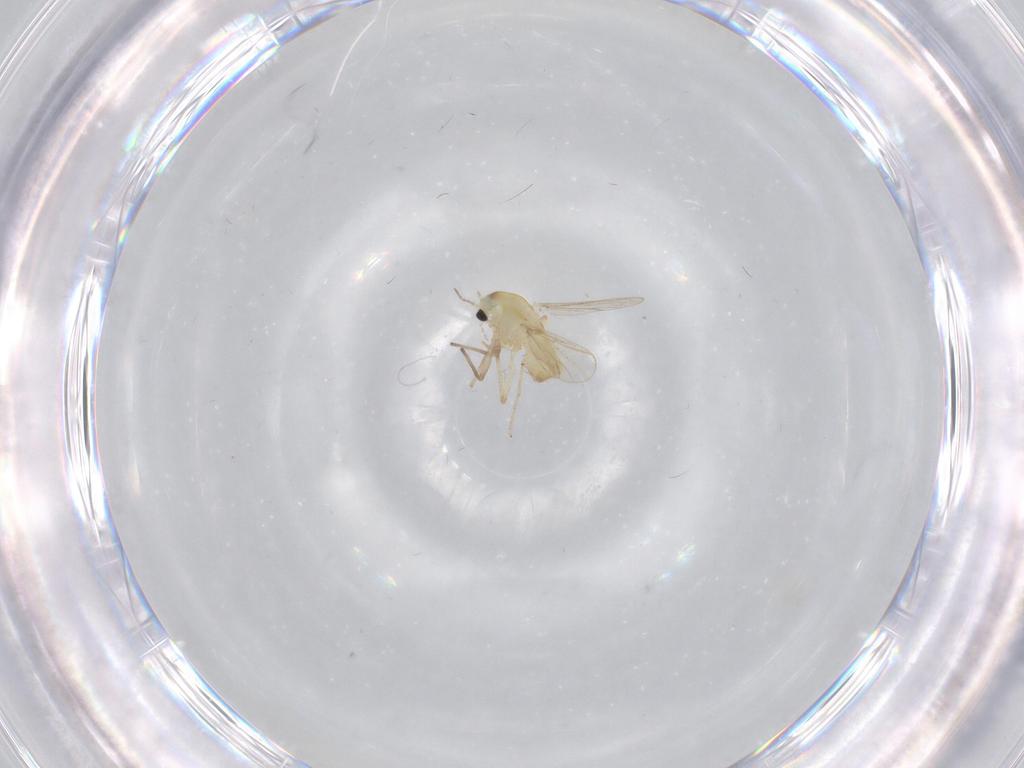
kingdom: Animalia
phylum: Arthropoda
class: Insecta
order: Diptera
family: Chironomidae
